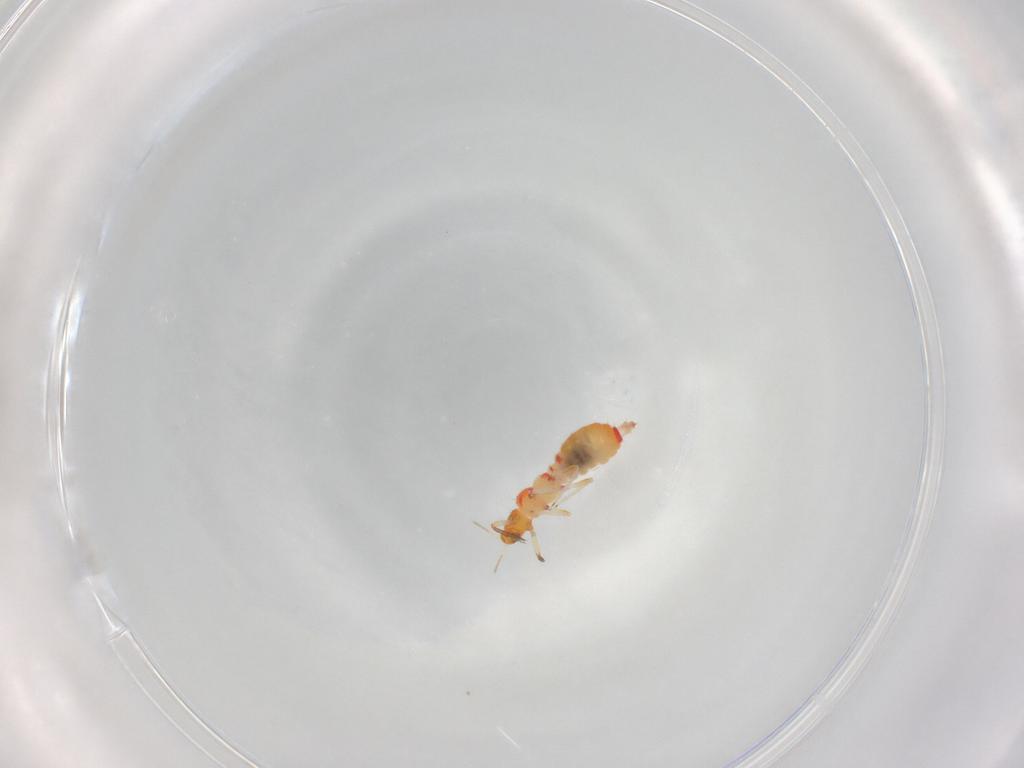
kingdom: Animalia
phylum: Arthropoda
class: Insecta
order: Thysanoptera
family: Aeolothripidae
